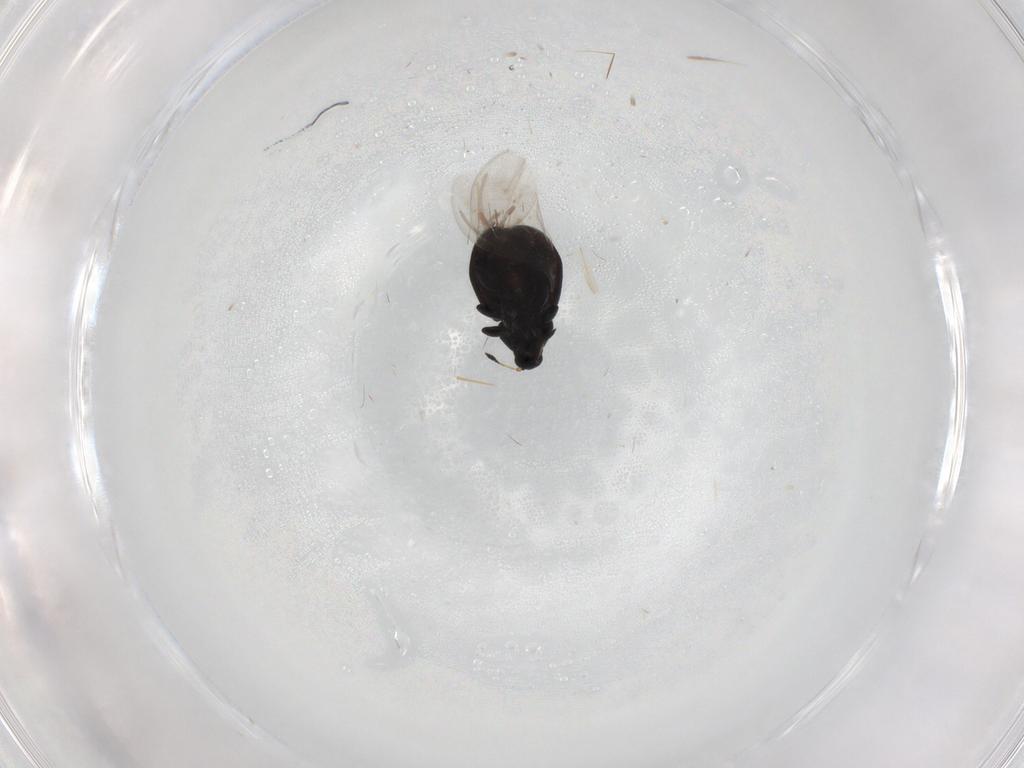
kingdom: Animalia
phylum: Arthropoda
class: Insecta
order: Coleoptera
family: Curculionidae
